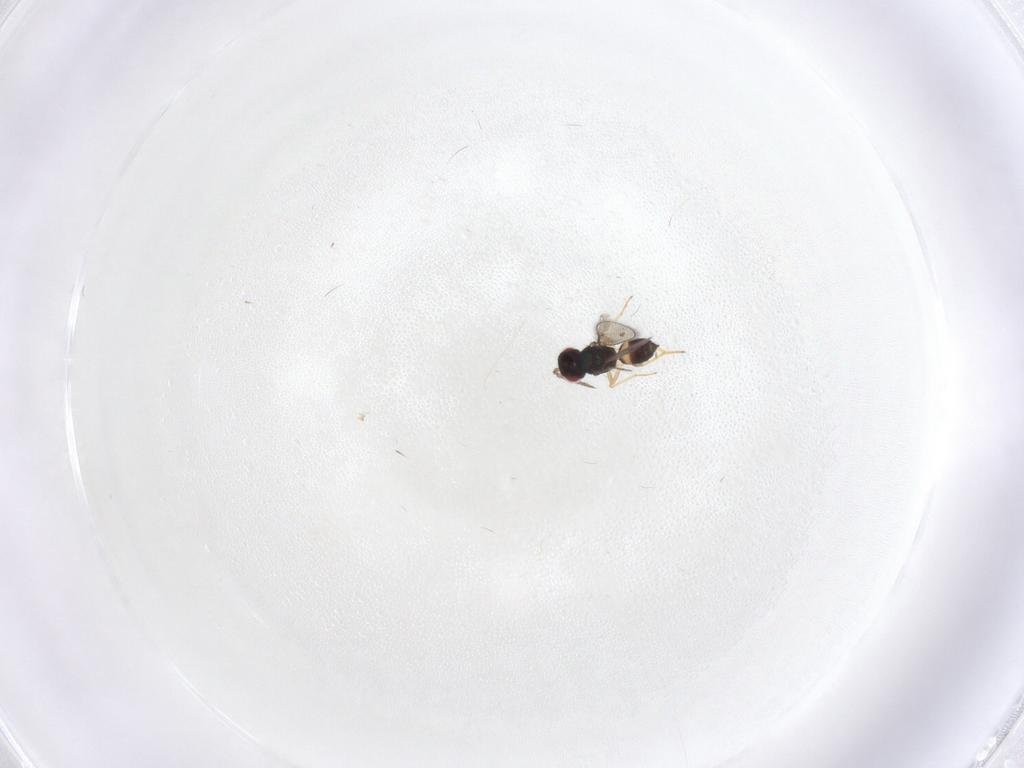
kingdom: Animalia
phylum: Arthropoda
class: Insecta
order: Hymenoptera
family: Eulophidae
